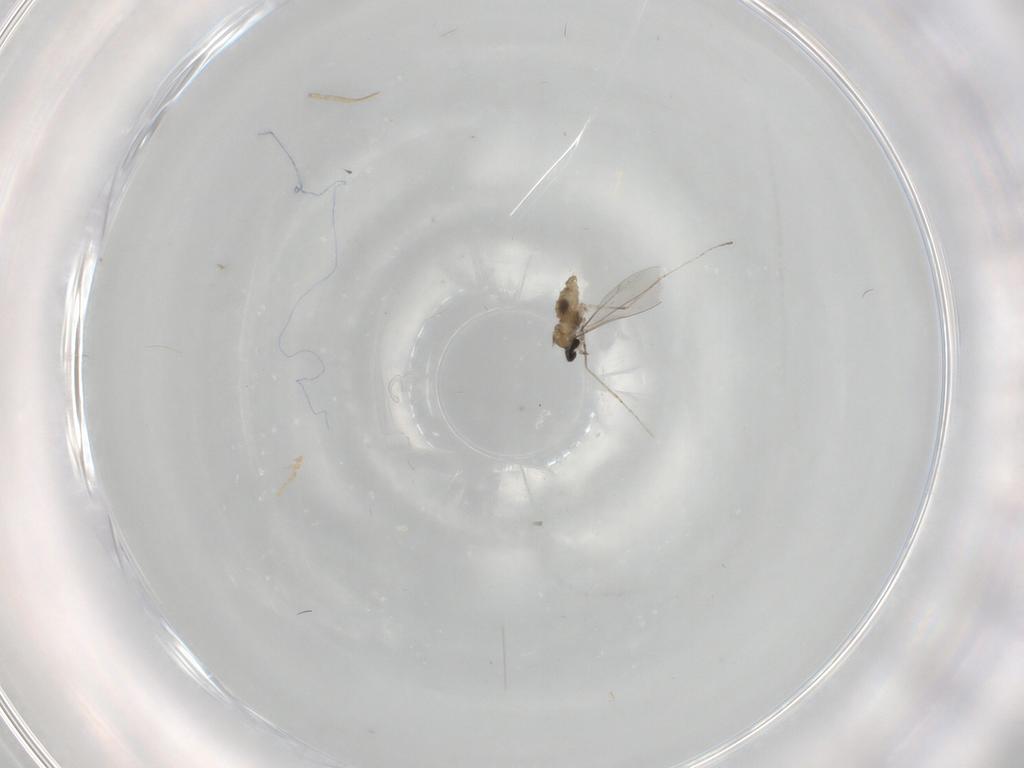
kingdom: Animalia
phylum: Arthropoda
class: Insecta
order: Diptera
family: Cecidomyiidae
